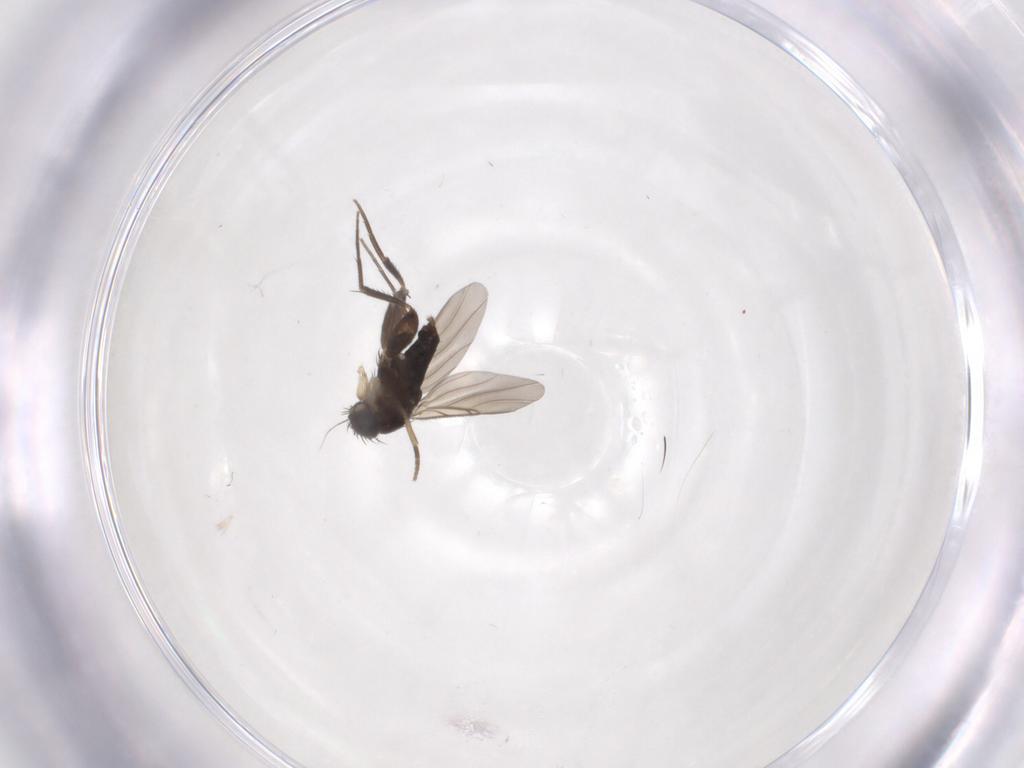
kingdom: Animalia
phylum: Arthropoda
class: Insecta
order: Diptera
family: Phoridae
